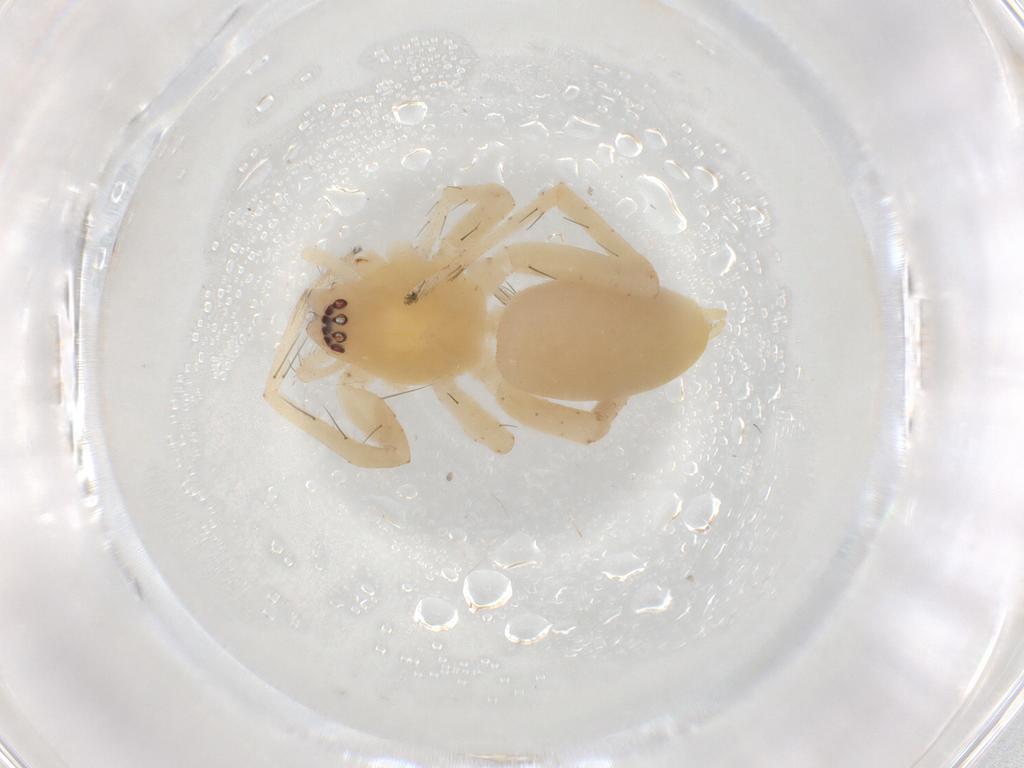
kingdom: Animalia
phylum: Arthropoda
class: Arachnida
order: Araneae
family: Anyphaenidae
